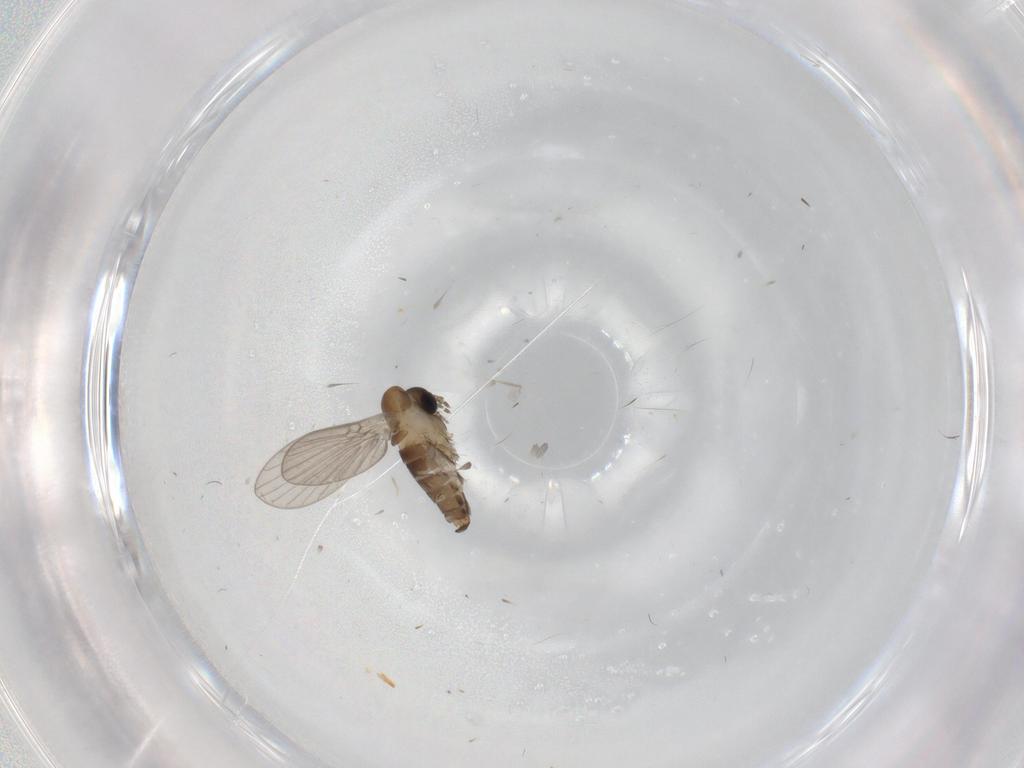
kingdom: Animalia
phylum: Arthropoda
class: Insecta
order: Diptera
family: Psychodidae
